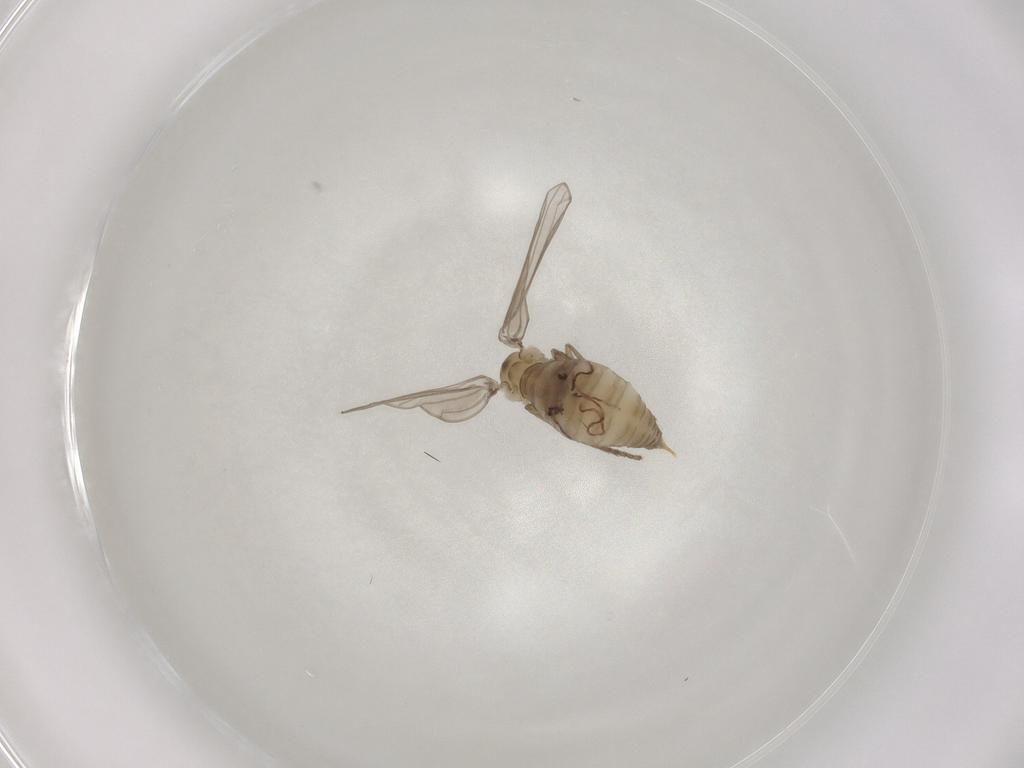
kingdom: Animalia
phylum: Arthropoda
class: Insecta
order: Diptera
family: Psychodidae
